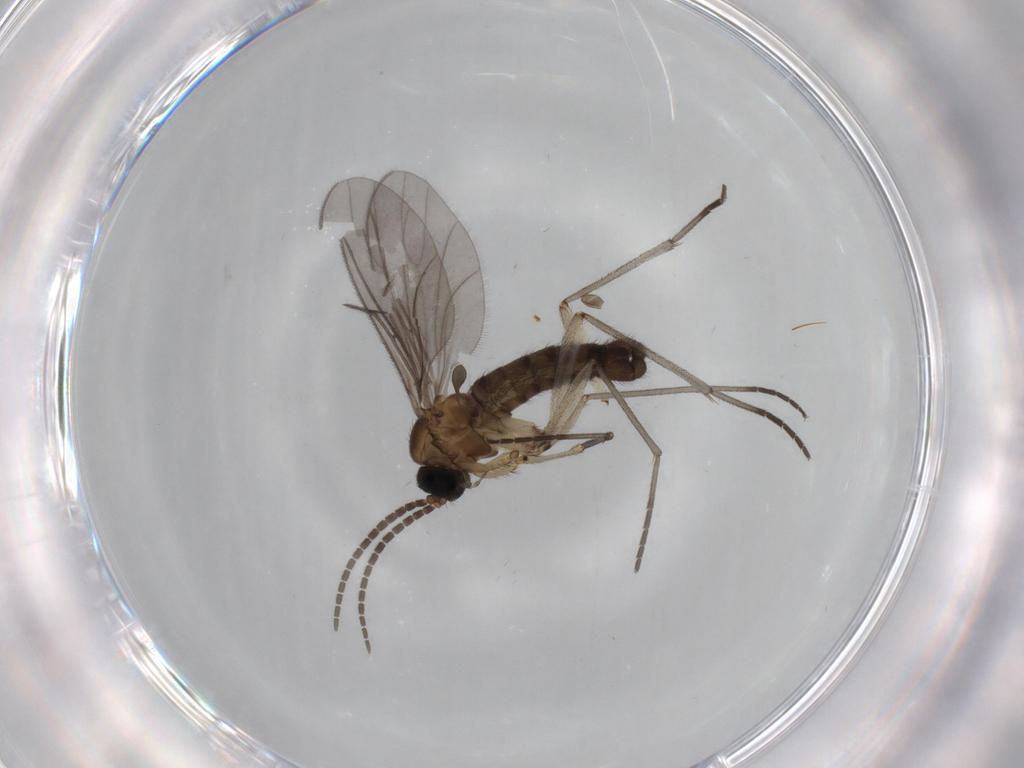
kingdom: Animalia
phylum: Arthropoda
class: Insecta
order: Diptera
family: Sciaridae
